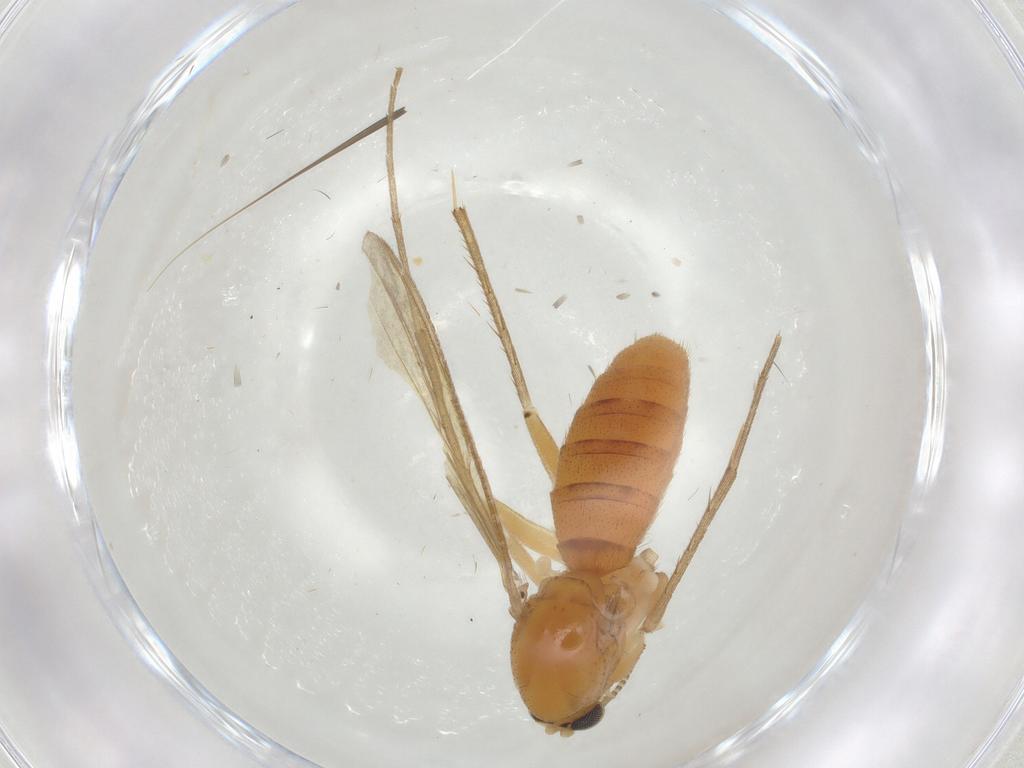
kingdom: Animalia
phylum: Arthropoda
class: Insecta
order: Diptera
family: Mycetophilidae
